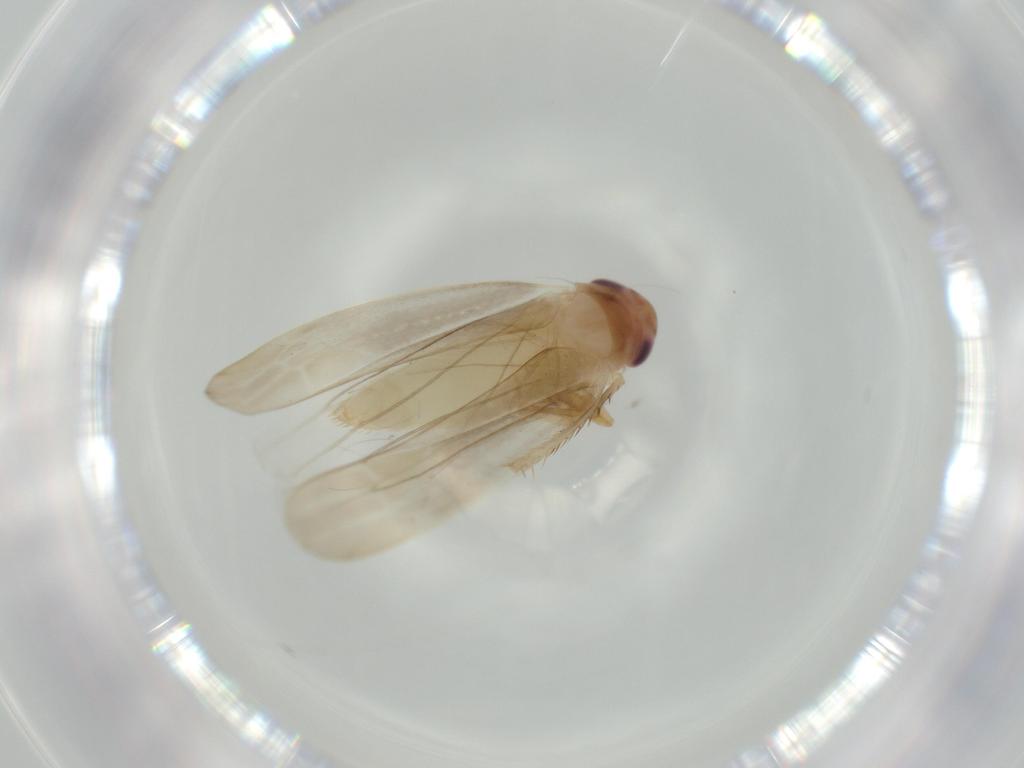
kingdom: Animalia
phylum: Arthropoda
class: Insecta
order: Hemiptera
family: Cicadellidae
